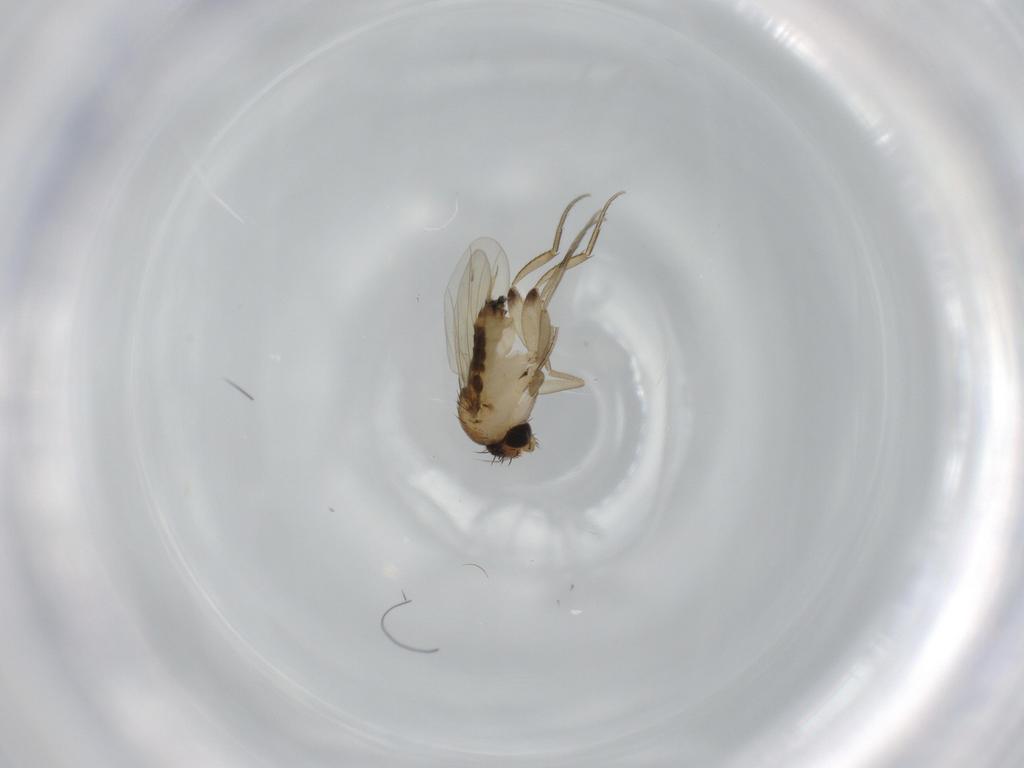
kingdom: Animalia
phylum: Arthropoda
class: Insecta
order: Diptera
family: Phoridae
